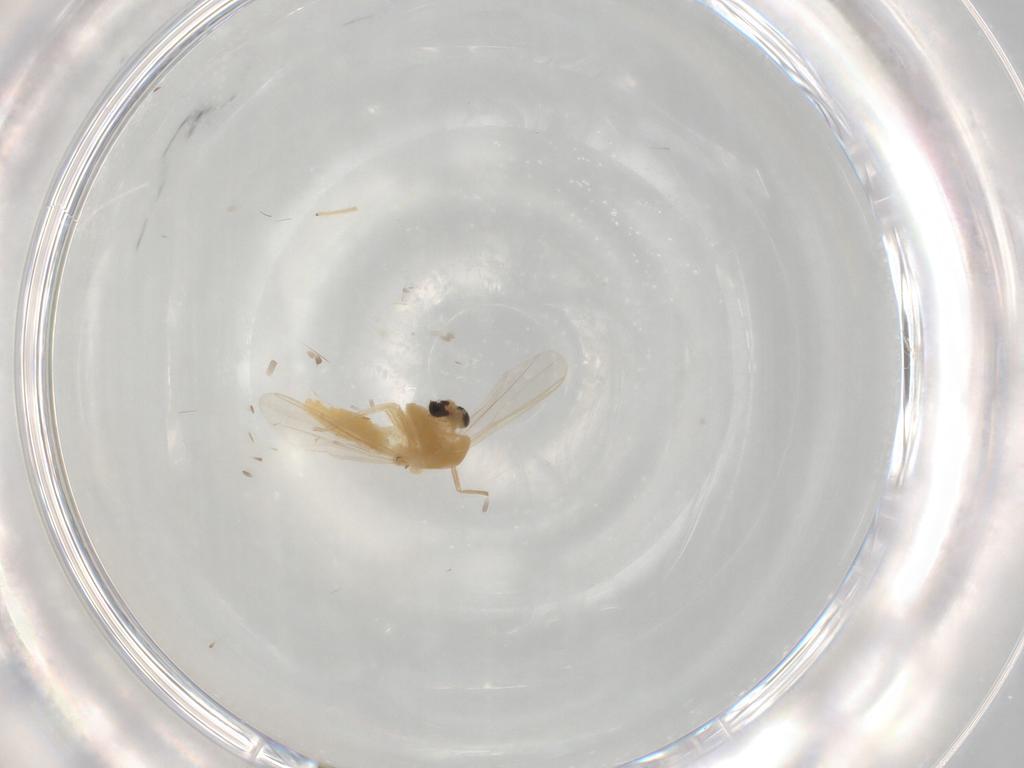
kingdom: Animalia
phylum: Arthropoda
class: Insecta
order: Diptera
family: Chironomidae
